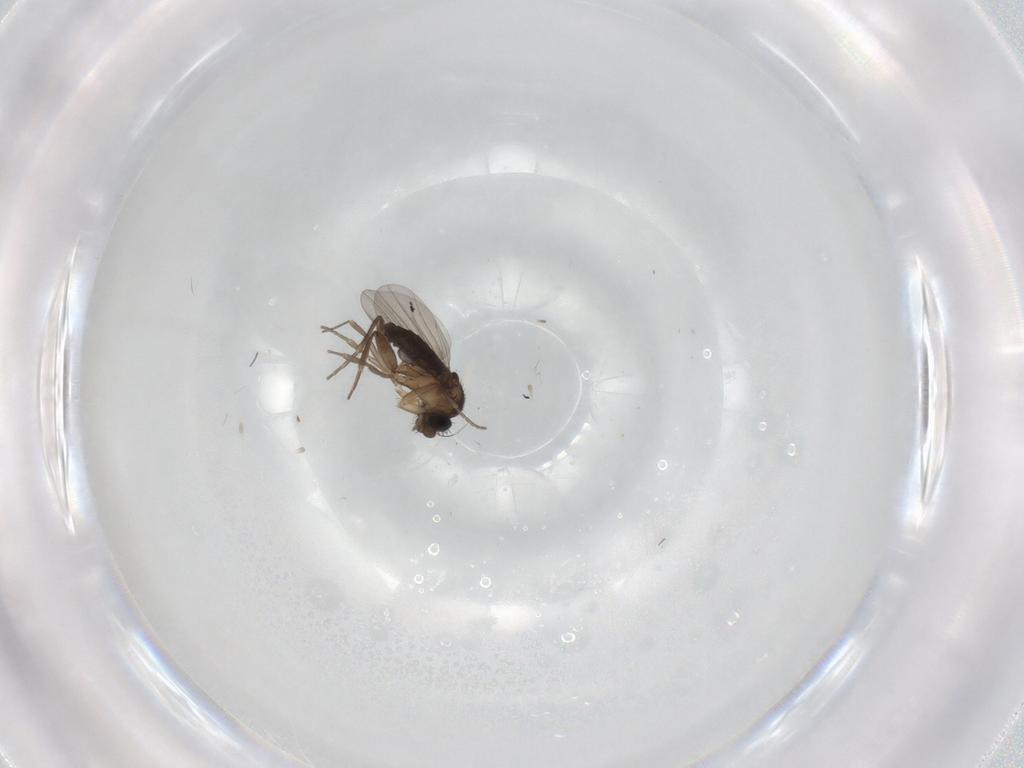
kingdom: Animalia
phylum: Arthropoda
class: Insecta
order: Diptera
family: Phoridae
